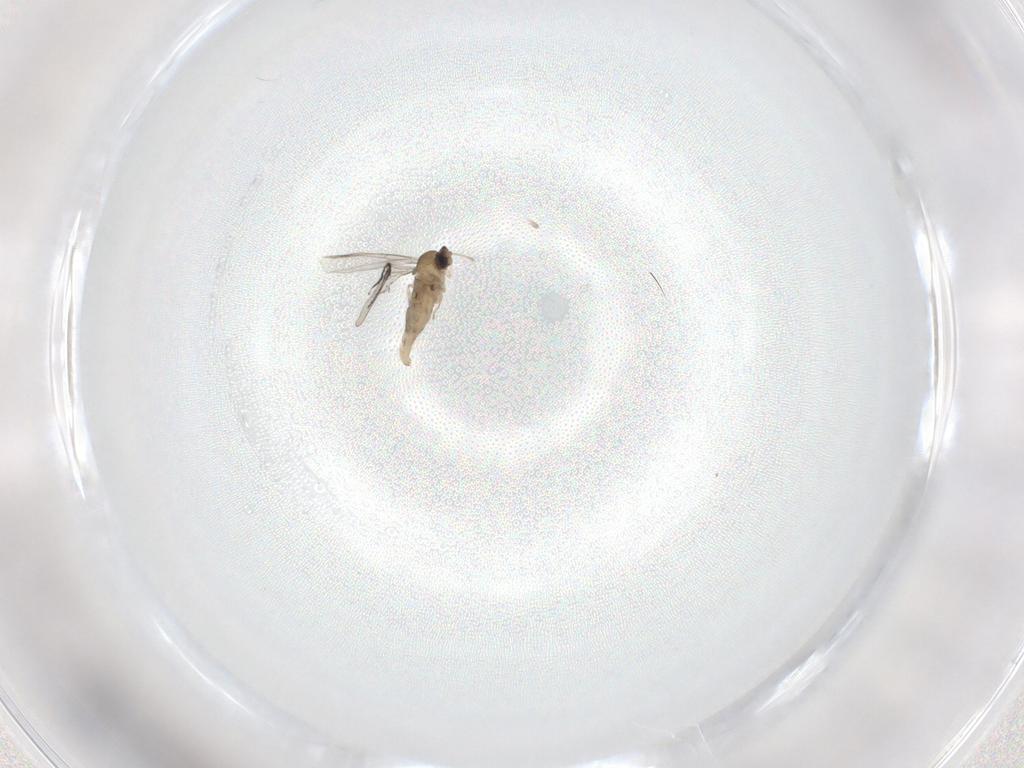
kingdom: Animalia
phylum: Arthropoda
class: Insecta
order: Diptera
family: Cecidomyiidae
